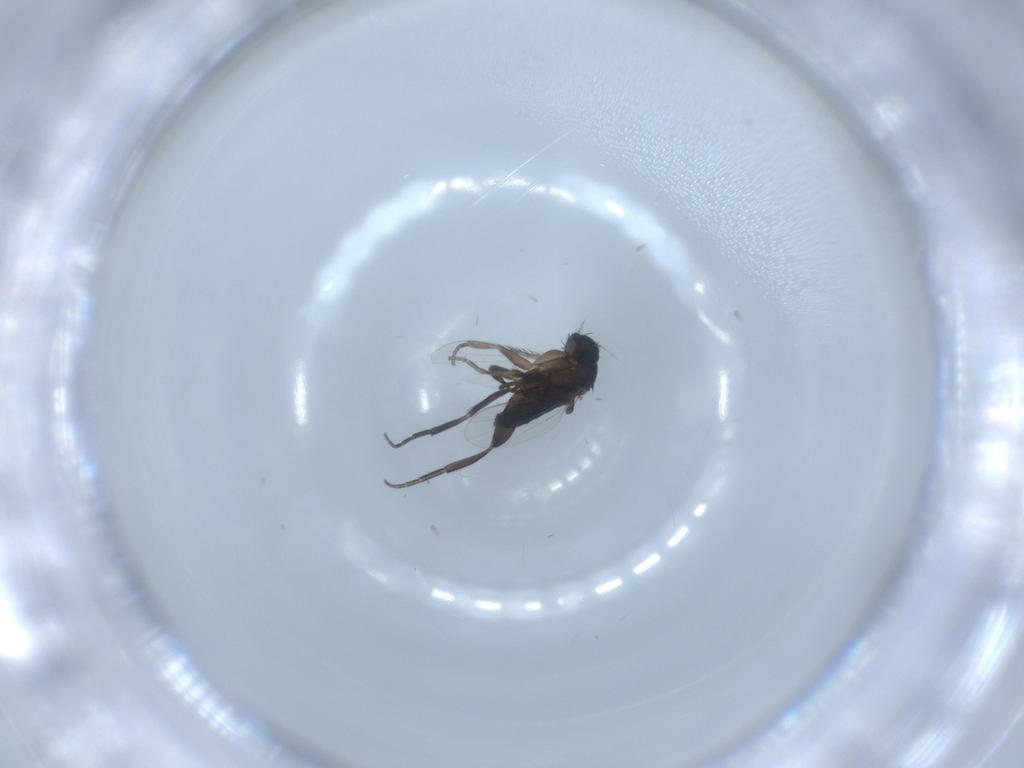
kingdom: Animalia
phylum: Arthropoda
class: Insecta
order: Diptera
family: Phoridae
